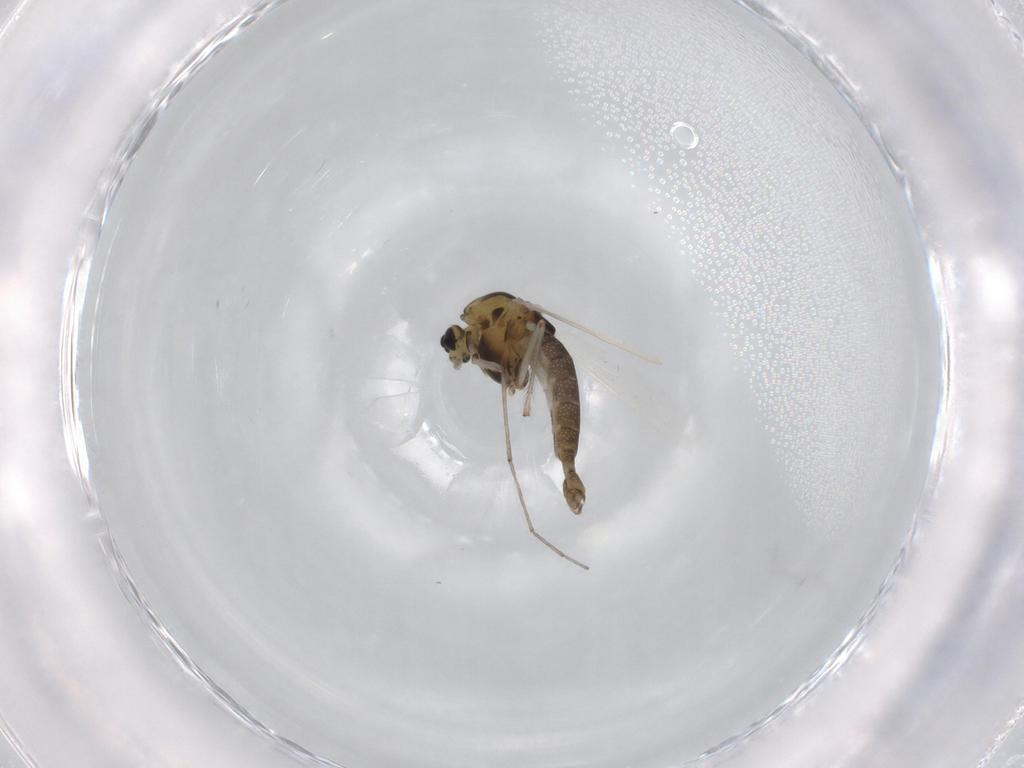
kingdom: Animalia
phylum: Arthropoda
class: Insecta
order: Diptera
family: Chironomidae
